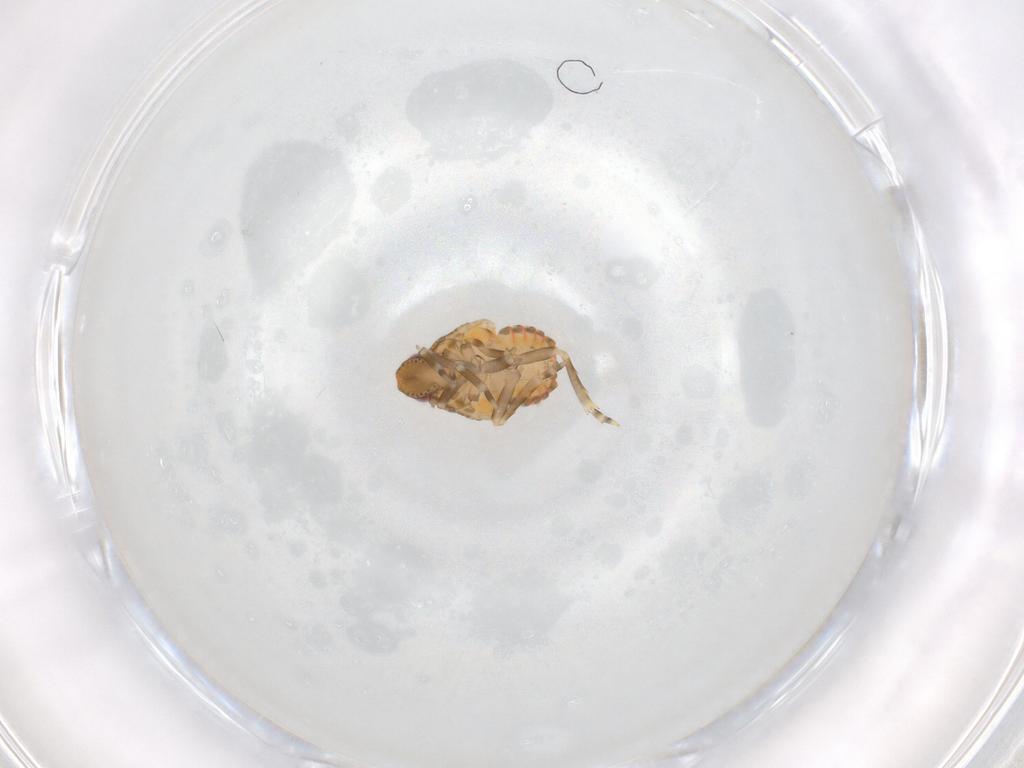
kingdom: Animalia
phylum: Arthropoda
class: Insecta
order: Hemiptera
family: Flatidae
